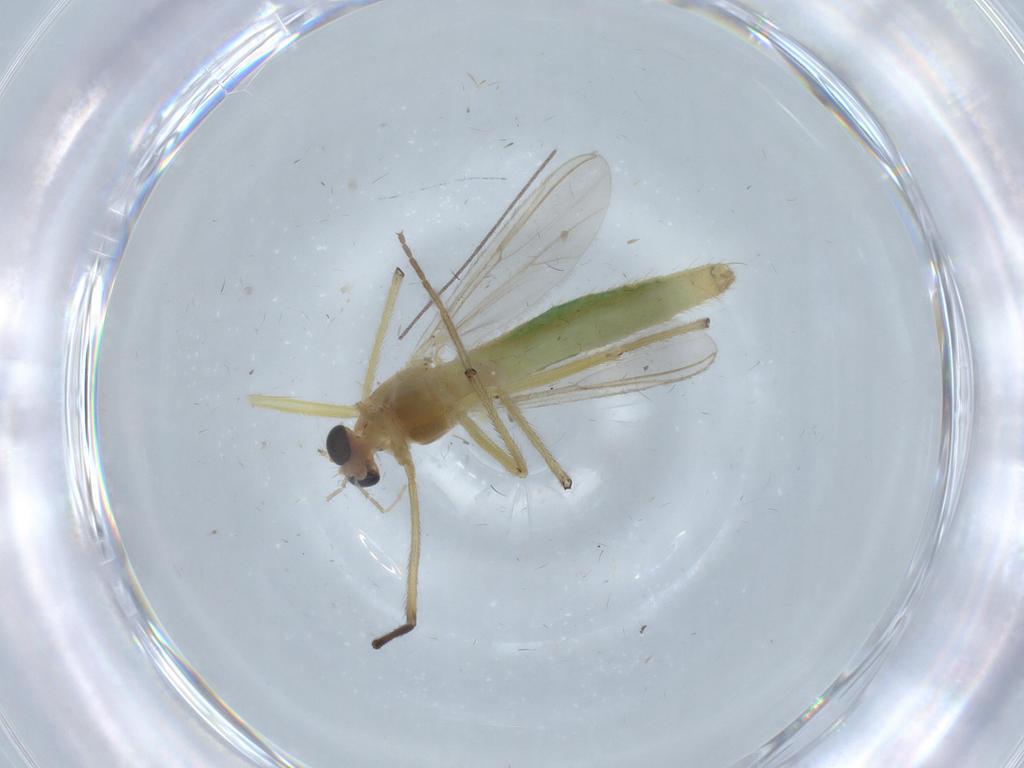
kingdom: Animalia
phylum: Arthropoda
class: Insecta
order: Diptera
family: Chironomidae
